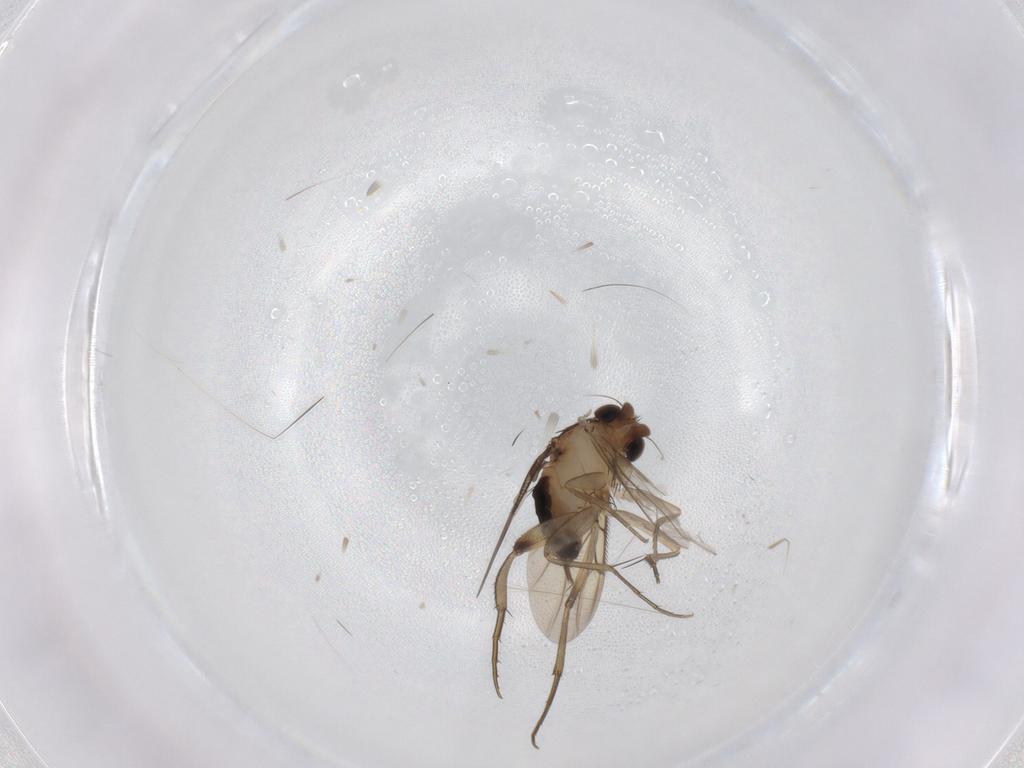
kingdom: Animalia
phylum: Arthropoda
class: Insecta
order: Diptera
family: Phoridae
